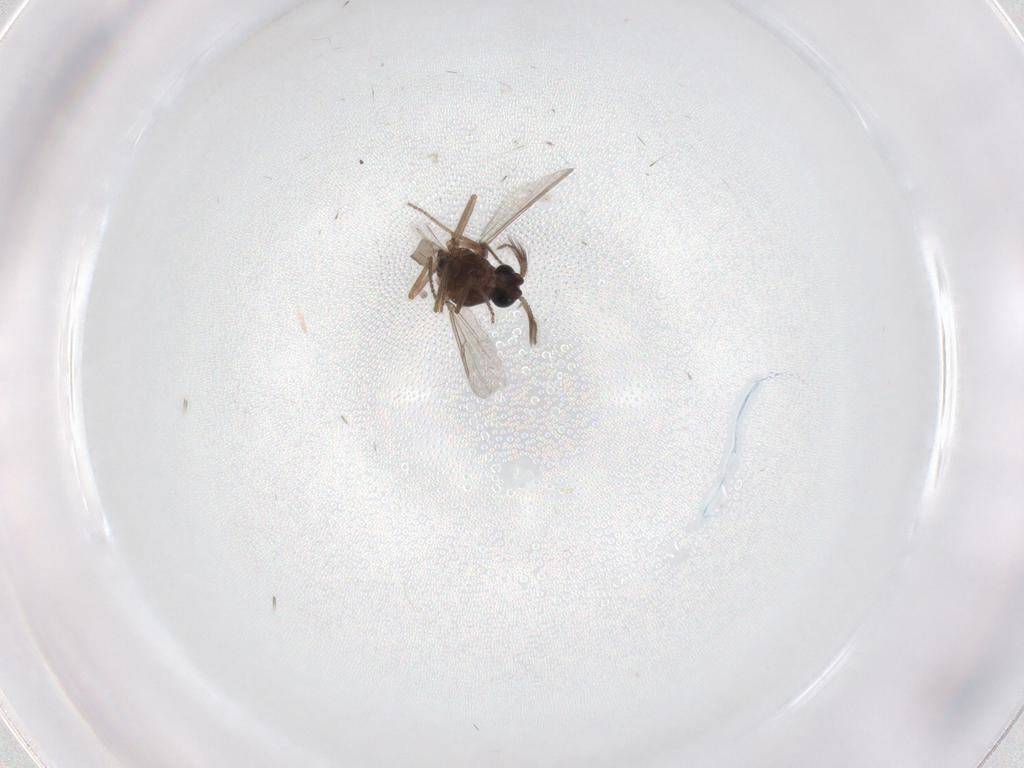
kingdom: Animalia
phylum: Arthropoda
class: Insecta
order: Diptera
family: Ceratopogonidae
